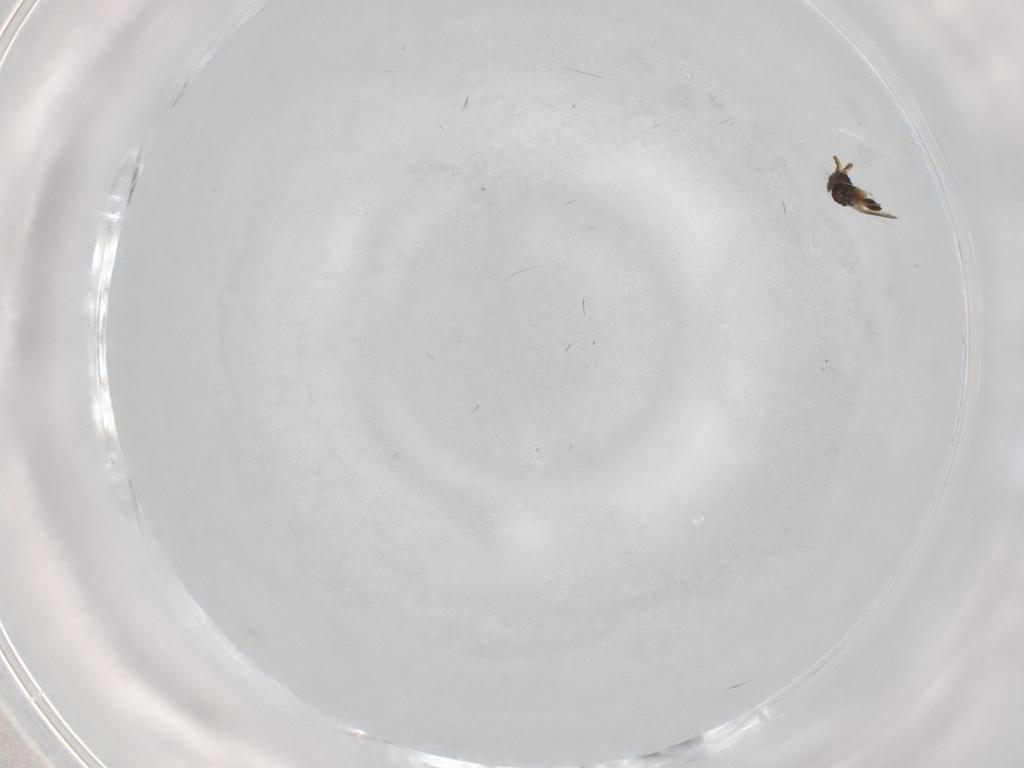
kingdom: Animalia
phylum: Arthropoda
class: Insecta
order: Hymenoptera
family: Platygastridae
